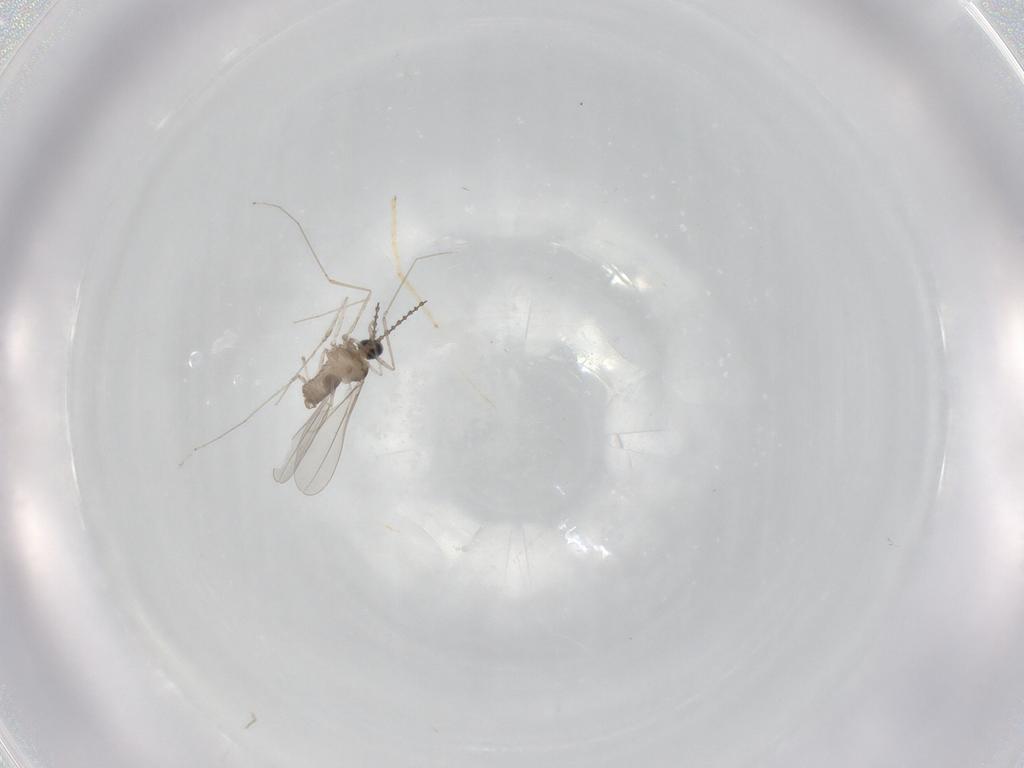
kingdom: Animalia
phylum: Arthropoda
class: Insecta
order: Diptera
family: Cecidomyiidae
